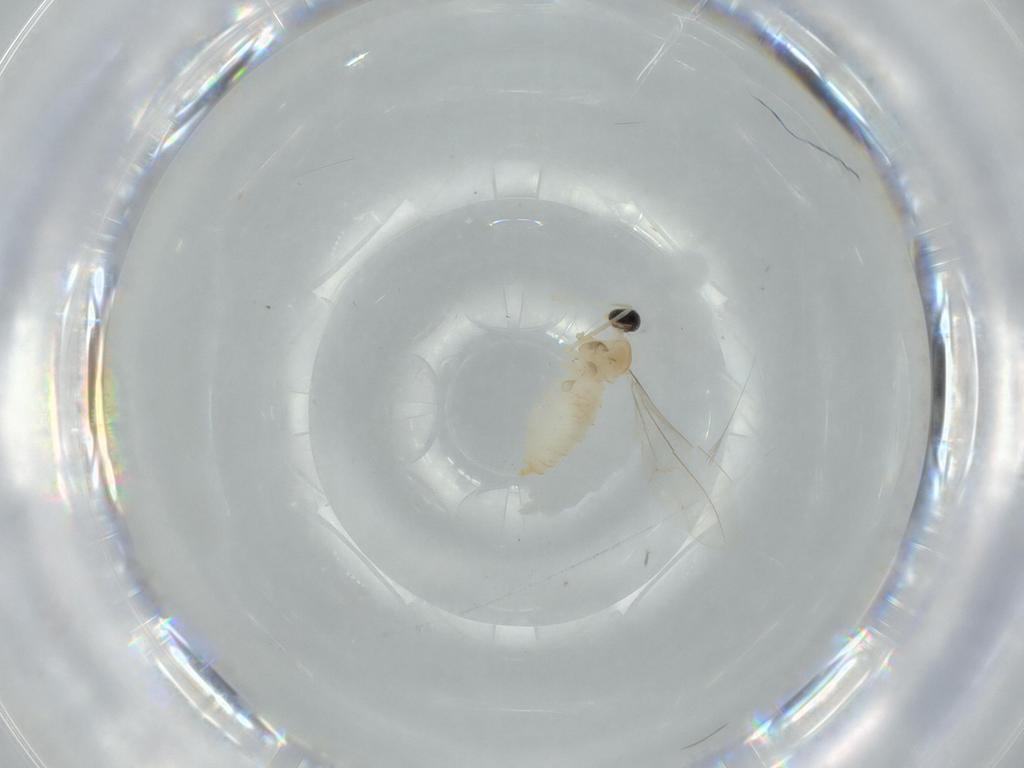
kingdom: Animalia
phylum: Arthropoda
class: Insecta
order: Diptera
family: Cecidomyiidae
